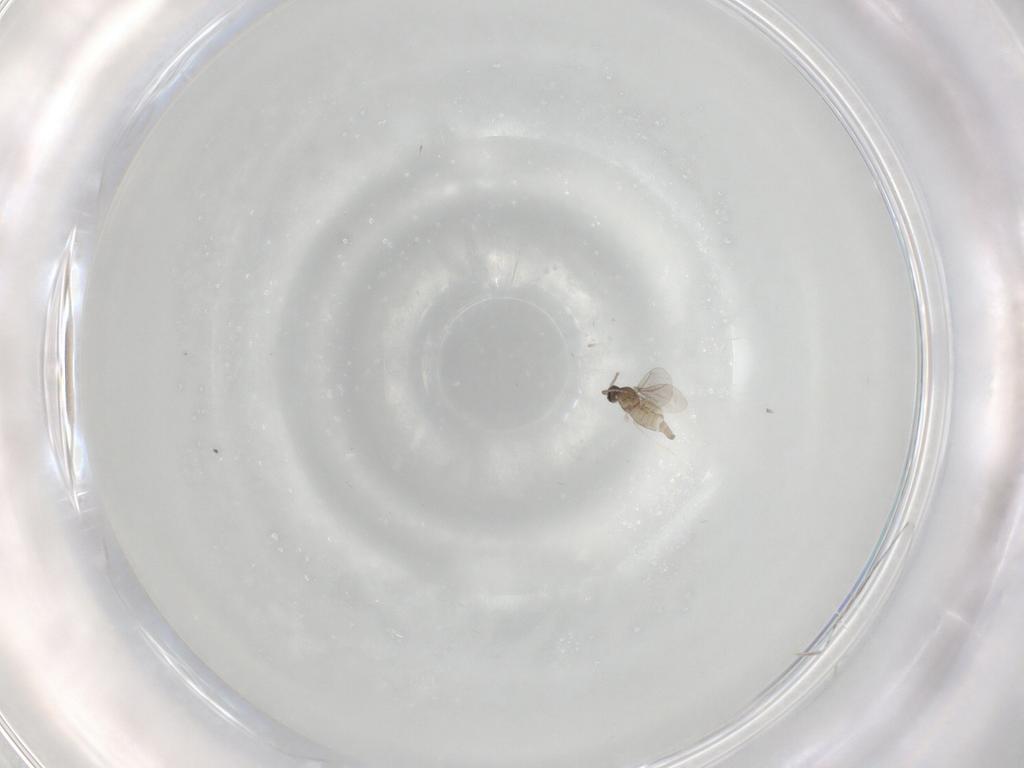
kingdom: Animalia
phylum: Arthropoda
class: Insecta
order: Diptera
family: Cecidomyiidae
